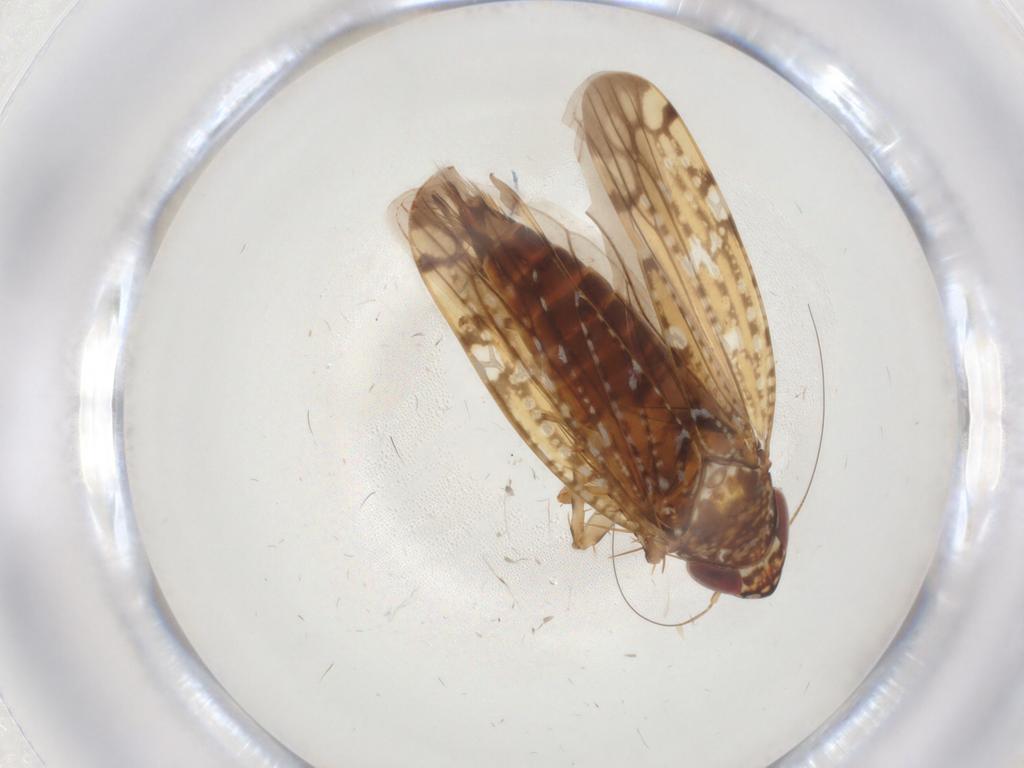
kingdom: Animalia
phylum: Arthropoda
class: Insecta
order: Hemiptera
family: Cicadellidae
